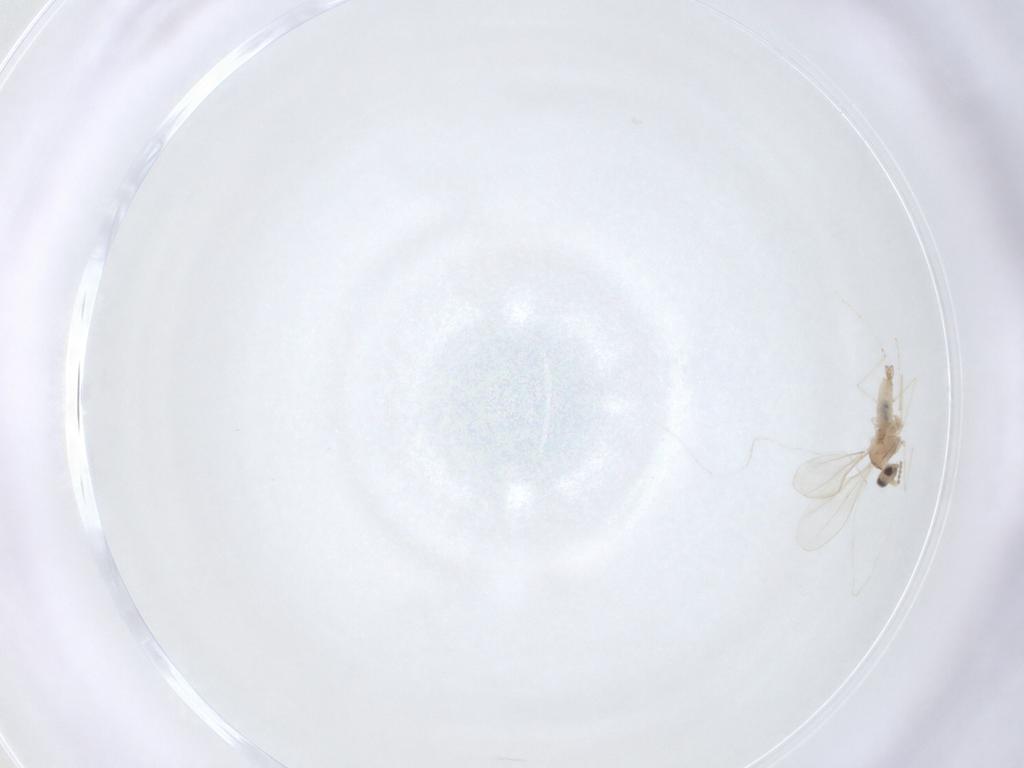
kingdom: Animalia
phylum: Arthropoda
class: Insecta
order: Diptera
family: Cecidomyiidae
